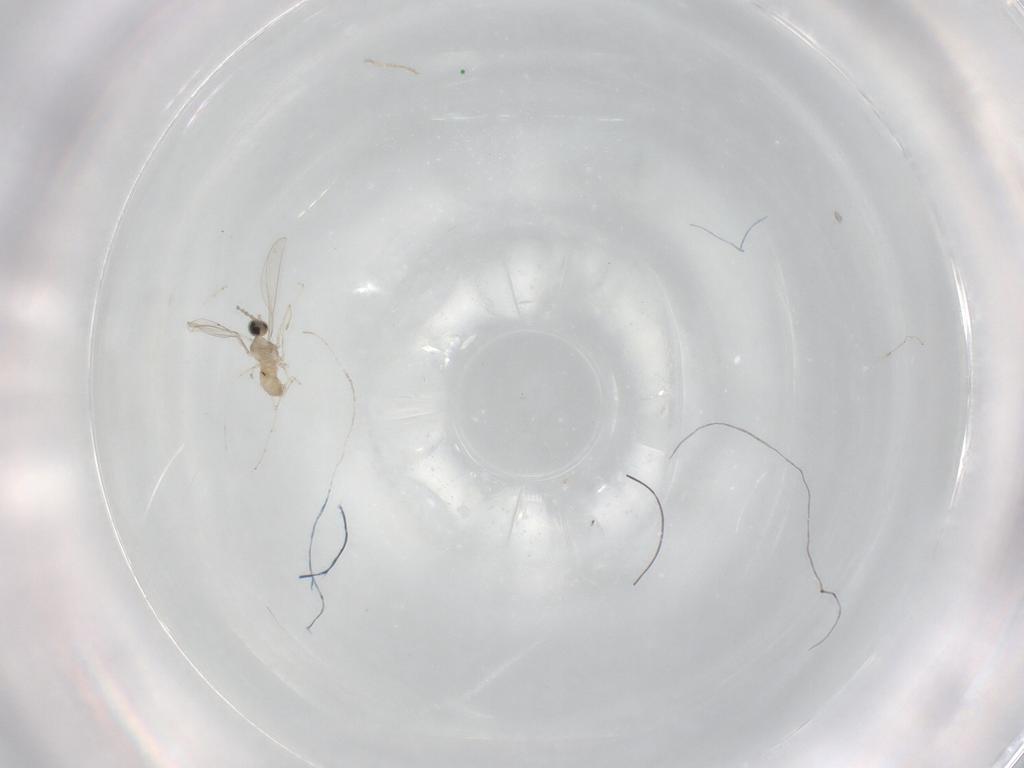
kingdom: Animalia
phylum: Arthropoda
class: Insecta
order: Diptera
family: Cecidomyiidae
